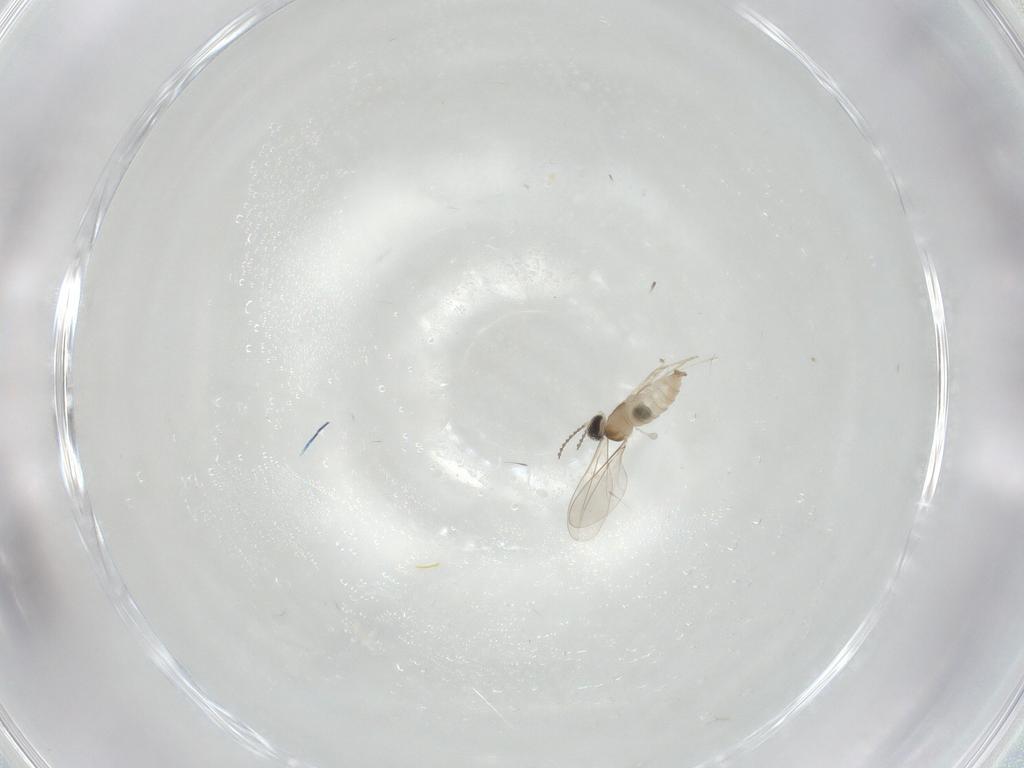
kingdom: Animalia
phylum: Arthropoda
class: Insecta
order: Diptera
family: Cecidomyiidae
